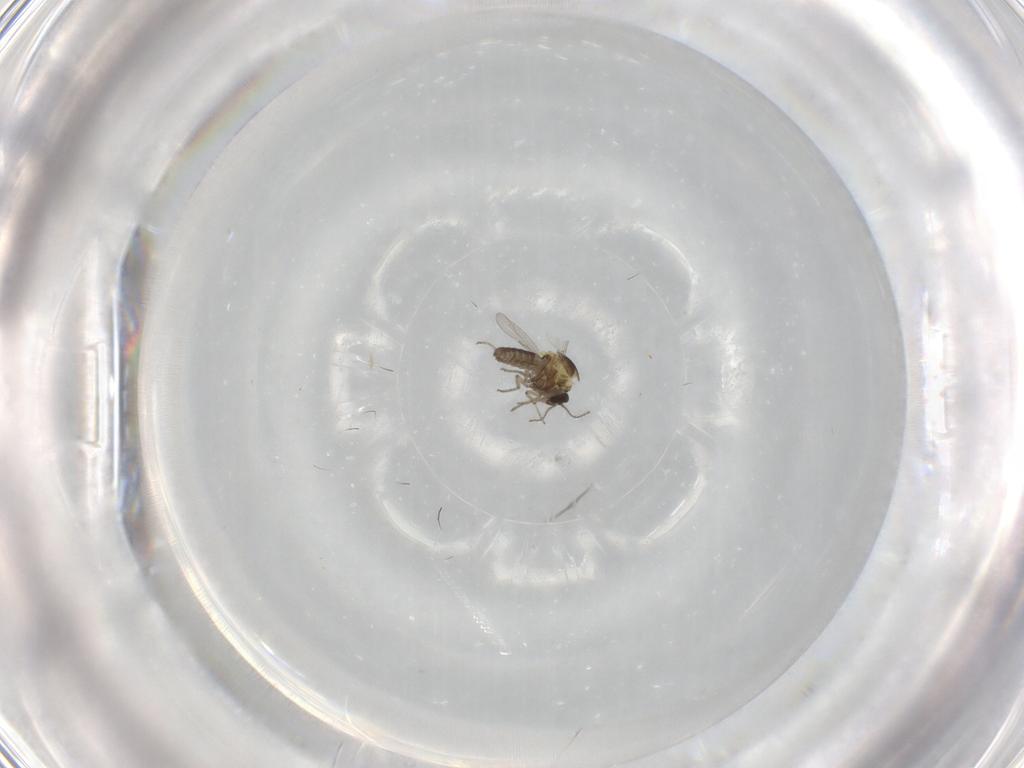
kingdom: Animalia
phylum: Arthropoda
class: Insecta
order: Diptera
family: Ceratopogonidae
